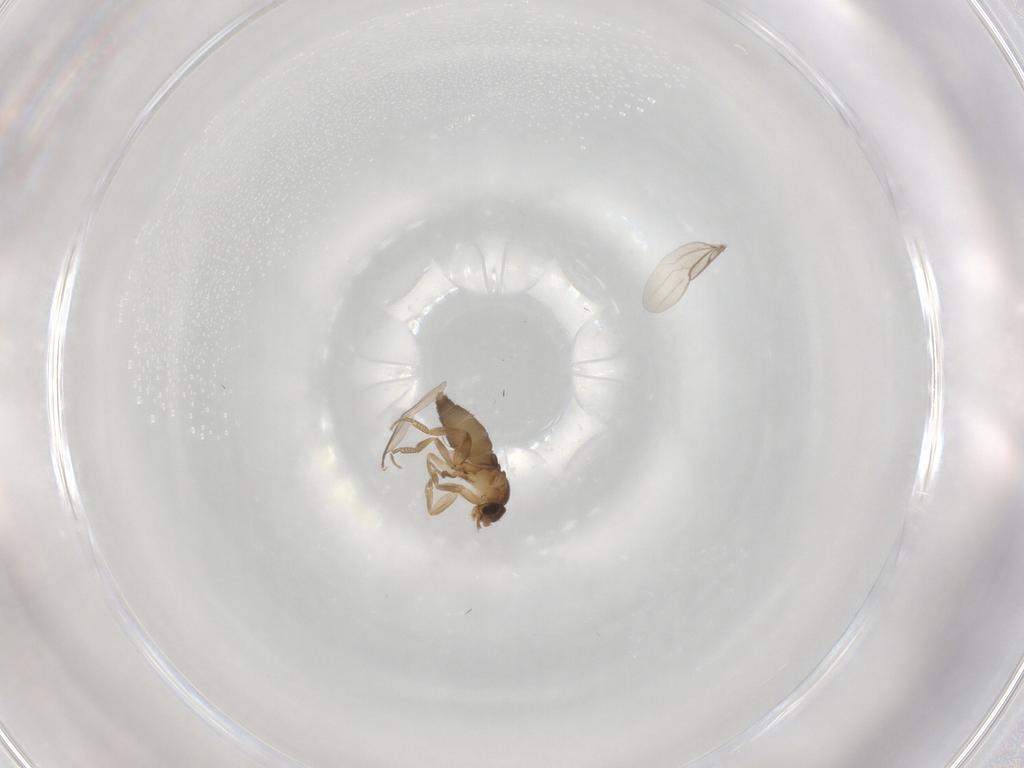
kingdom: Animalia
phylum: Arthropoda
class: Insecta
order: Diptera
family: Phoridae
